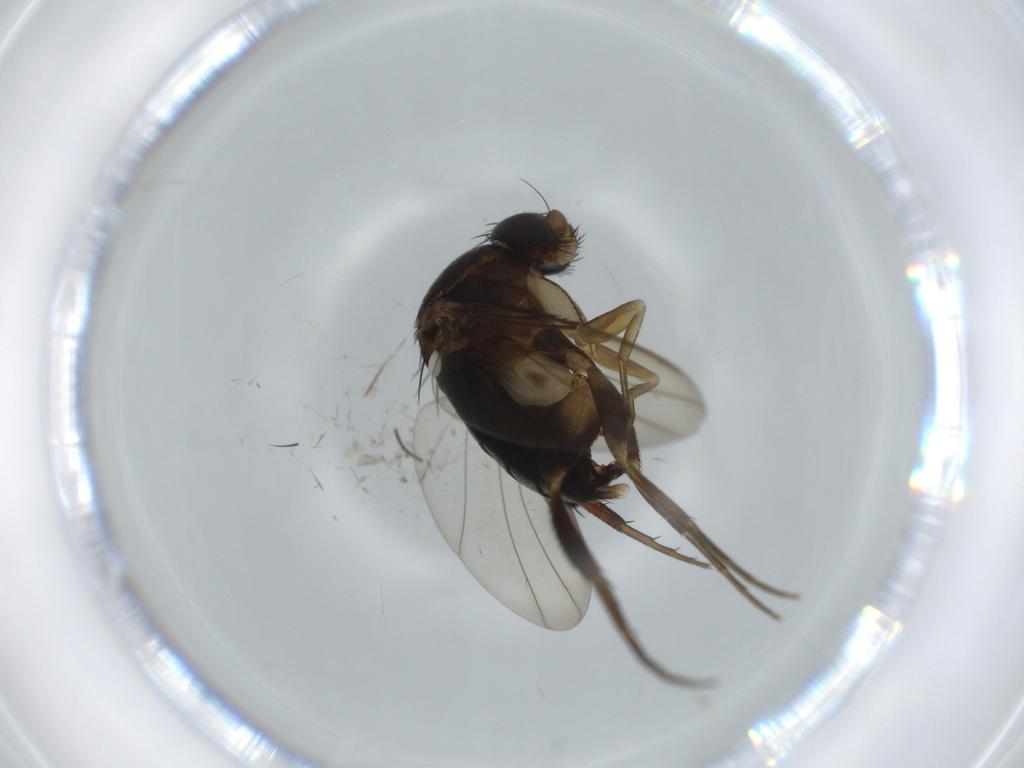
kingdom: Animalia
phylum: Arthropoda
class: Insecta
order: Diptera
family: Phoridae
